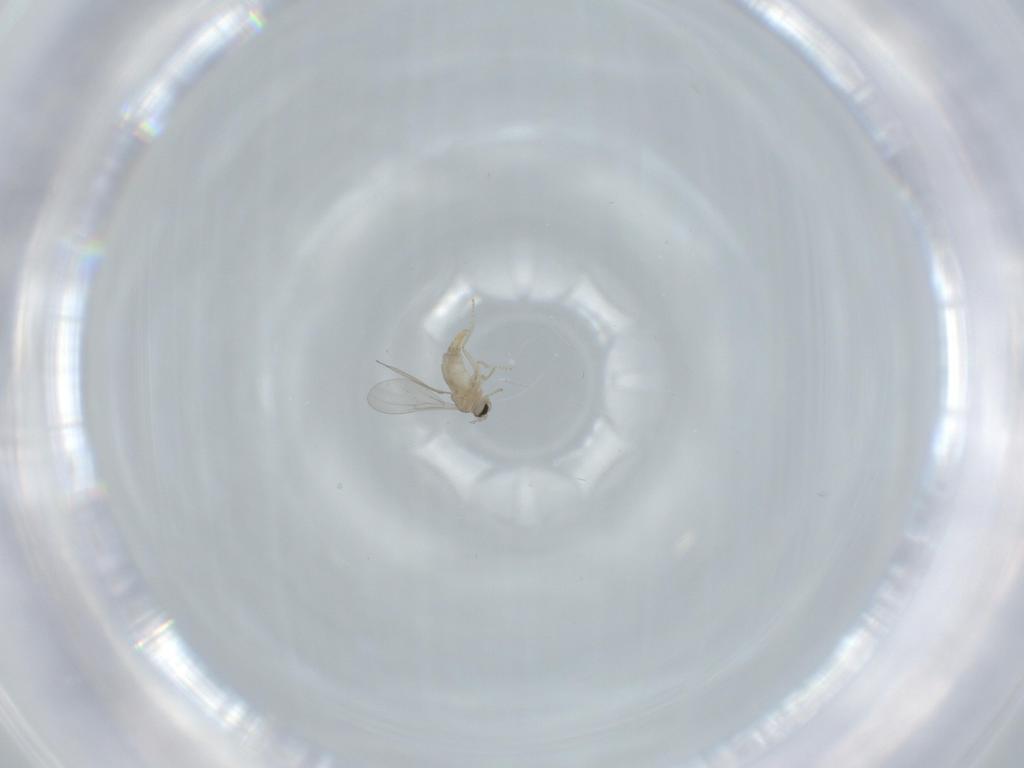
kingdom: Animalia
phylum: Arthropoda
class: Insecta
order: Diptera
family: Cecidomyiidae
